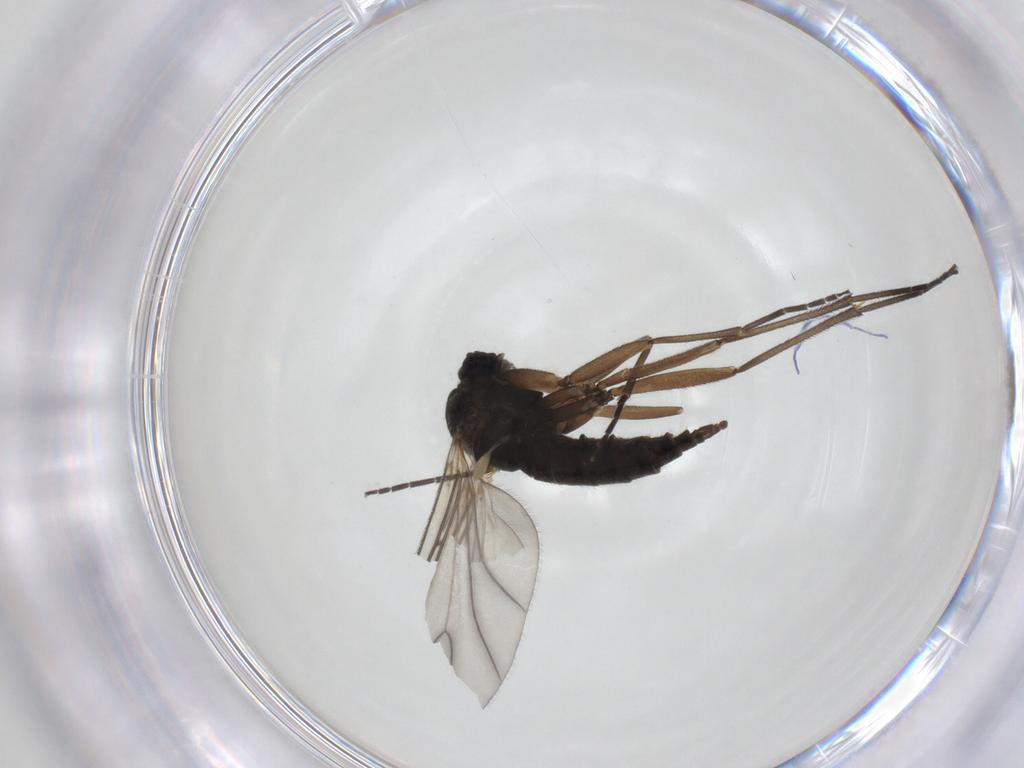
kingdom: Animalia
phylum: Arthropoda
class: Insecta
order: Diptera
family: Sciaridae
